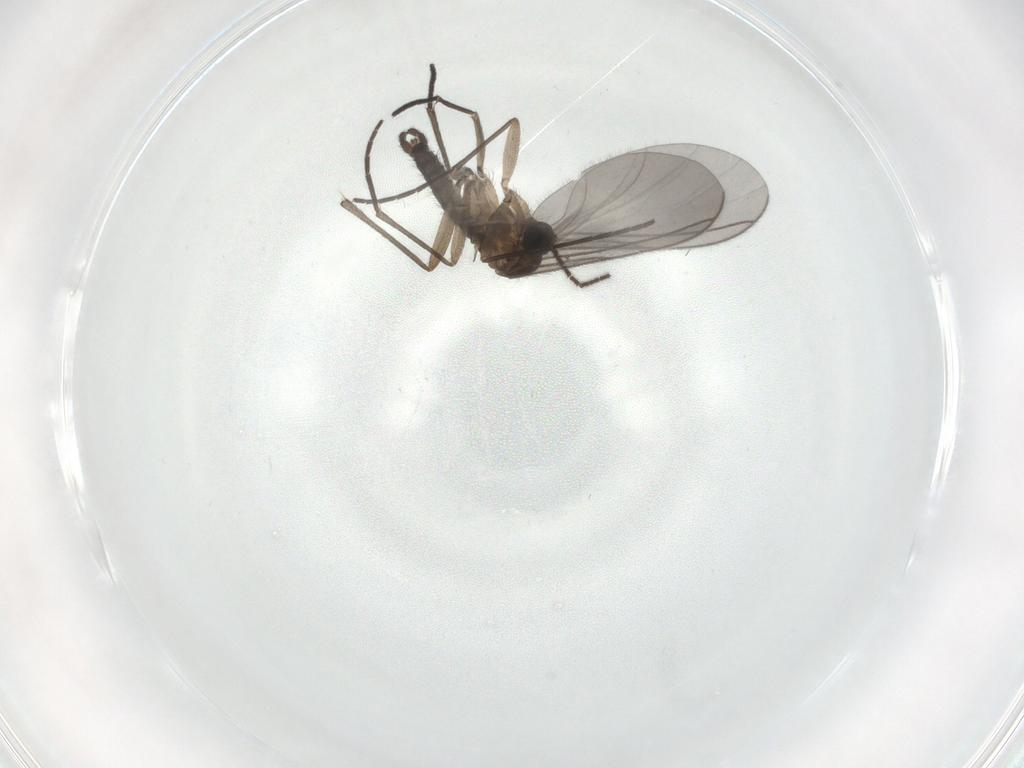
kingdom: Animalia
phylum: Arthropoda
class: Insecta
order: Diptera
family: Sciaridae
